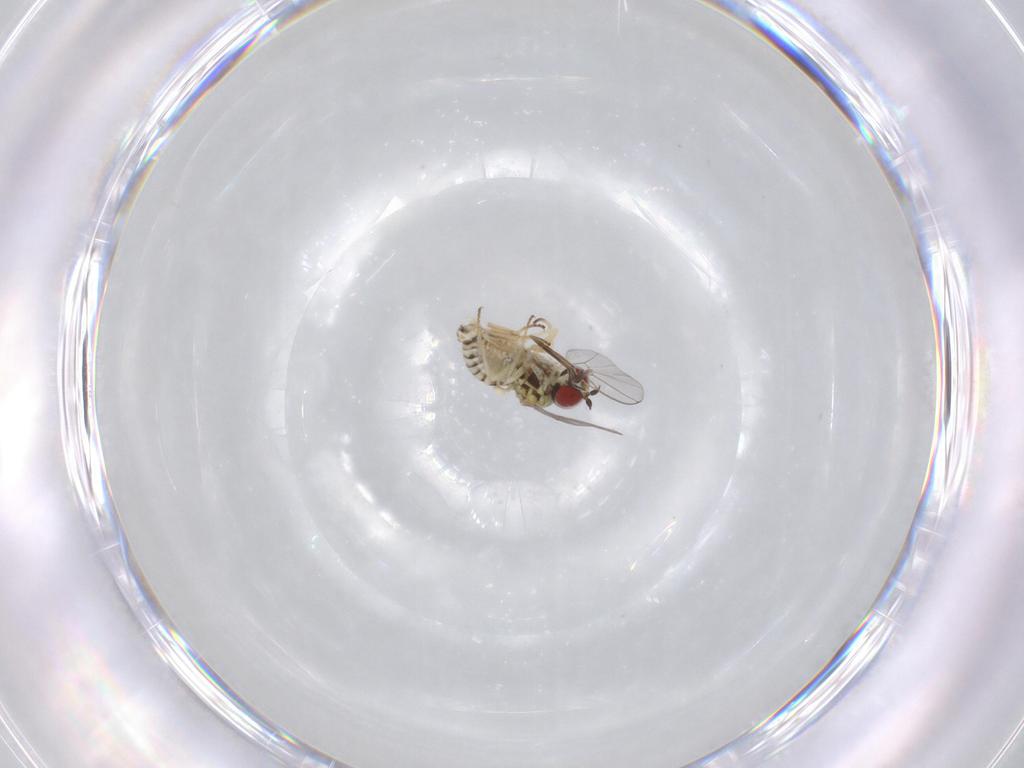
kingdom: Animalia
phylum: Arthropoda
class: Insecta
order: Diptera
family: Bombyliidae
